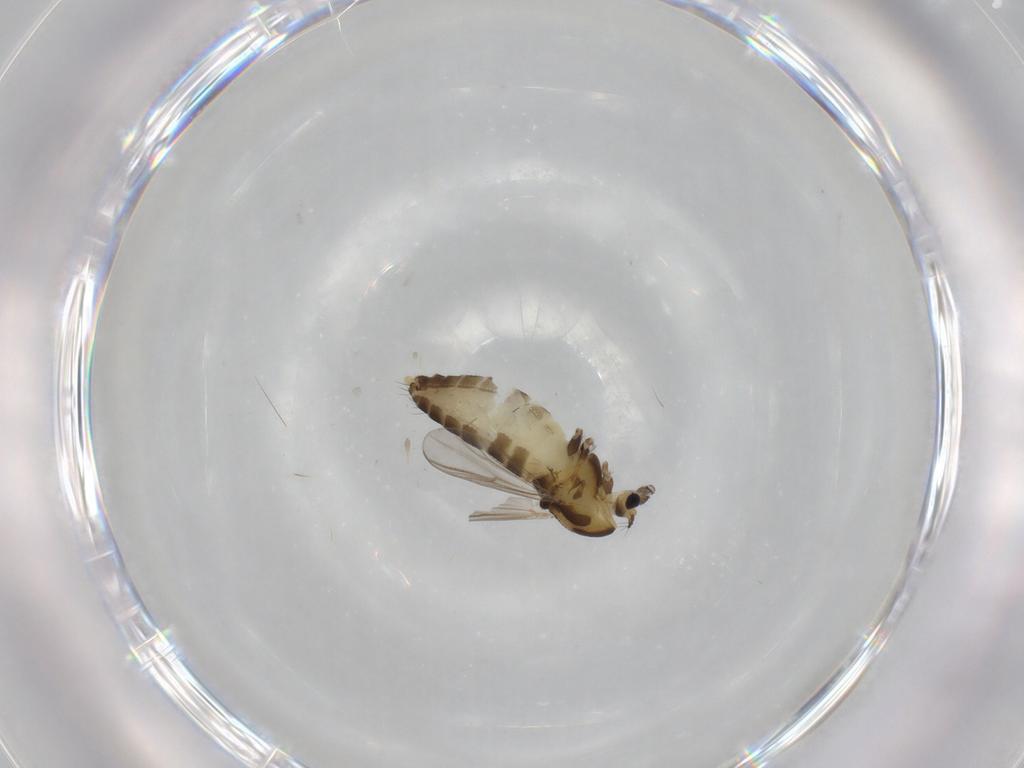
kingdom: Animalia
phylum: Arthropoda
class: Insecta
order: Diptera
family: Chironomidae
